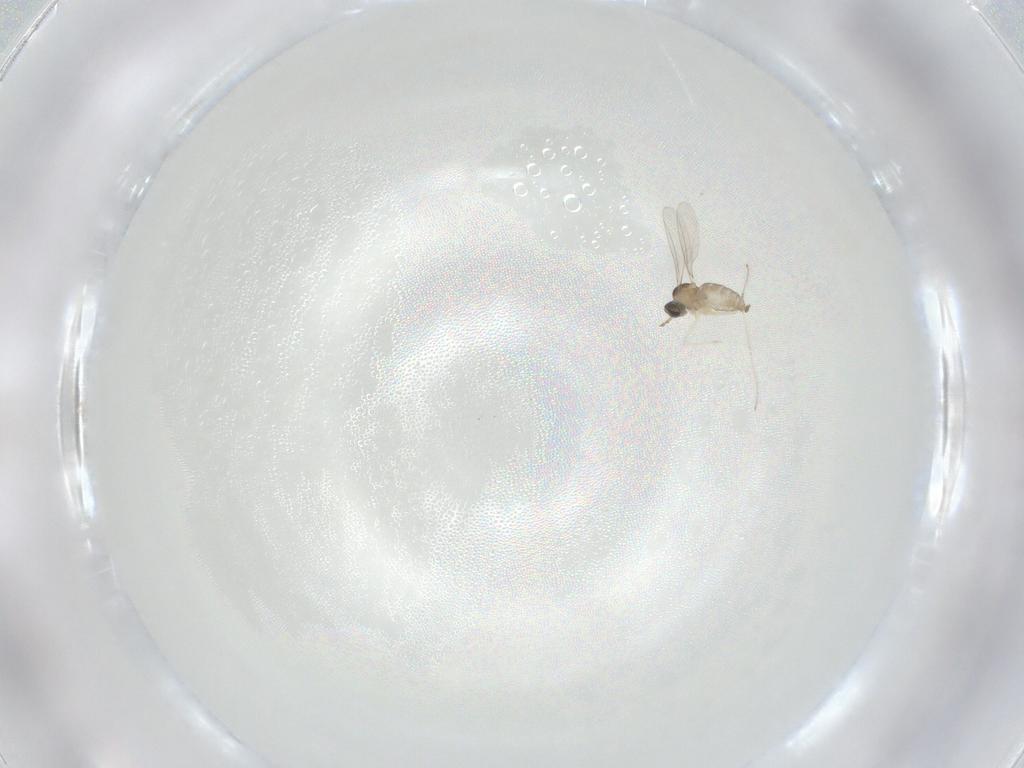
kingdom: Animalia
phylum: Arthropoda
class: Insecta
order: Diptera
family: Cecidomyiidae
